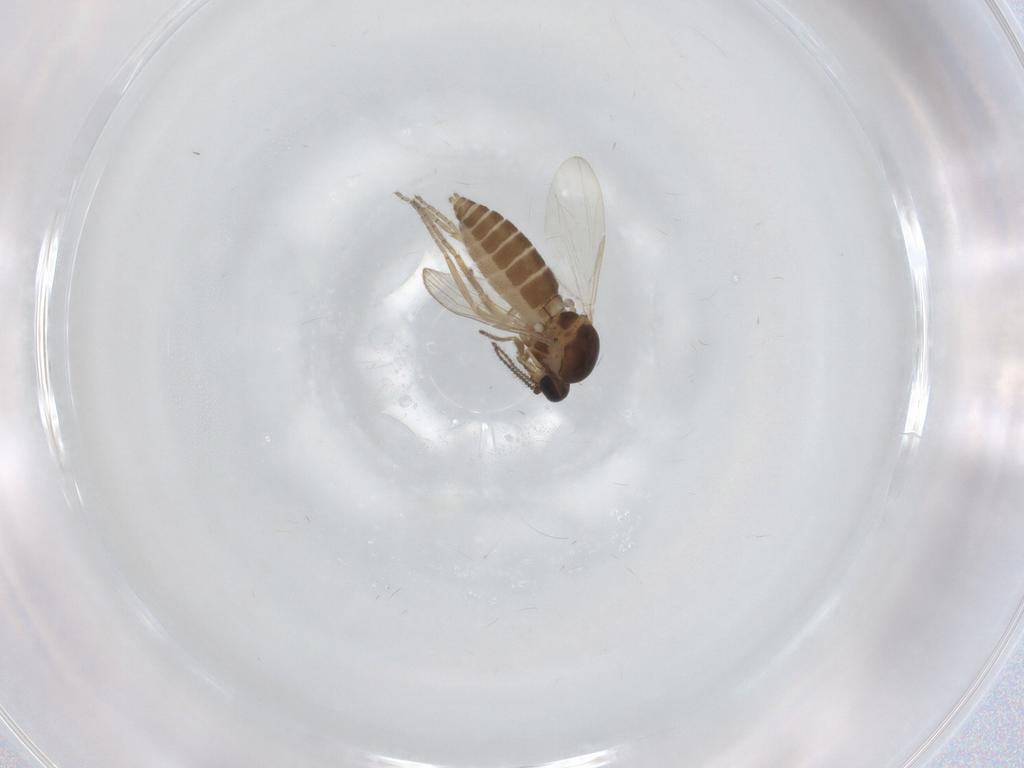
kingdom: Animalia
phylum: Arthropoda
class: Insecta
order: Diptera
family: Ceratopogonidae
